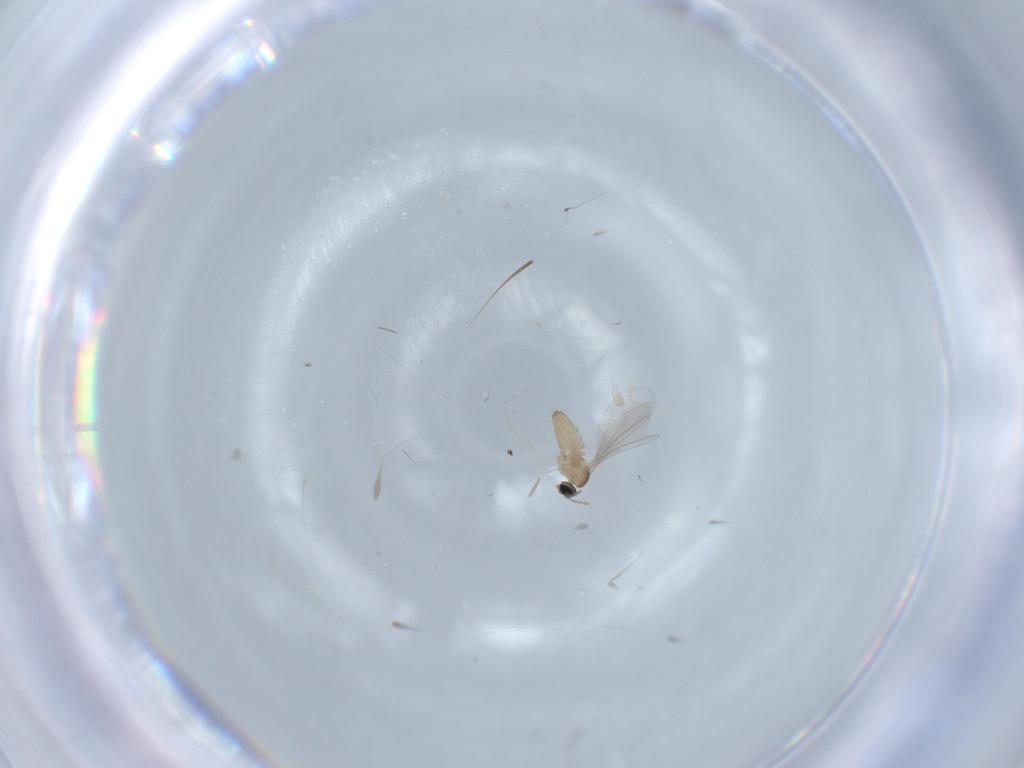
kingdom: Animalia
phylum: Arthropoda
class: Insecta
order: Diptera
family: Cecidomyiidae
